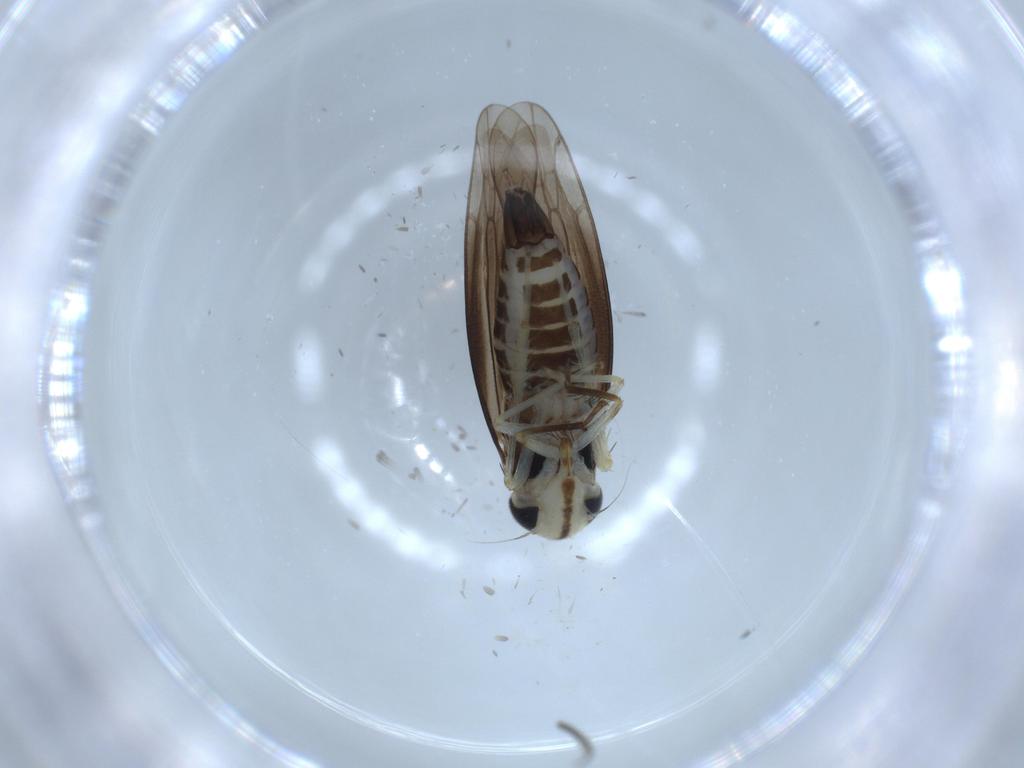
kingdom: Animalia
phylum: Arthropoda
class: Insecta
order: Hemiptera
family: Cicadellidae
